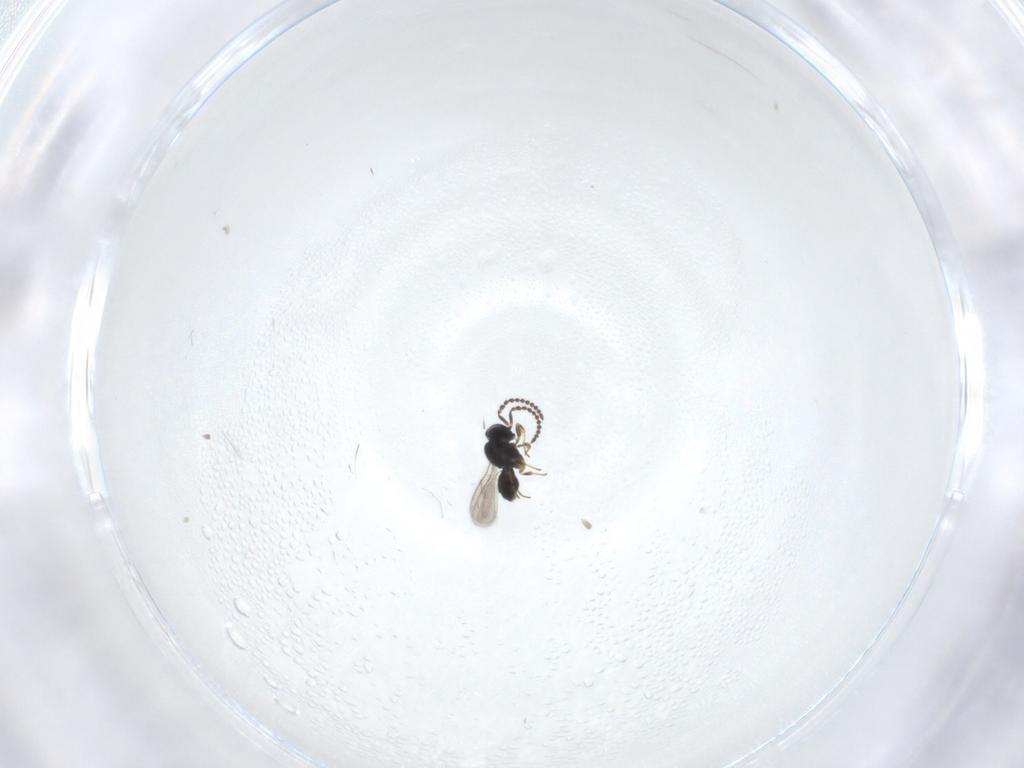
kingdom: Animalia
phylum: Arthropoda
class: Insecta
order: Hymenoptera
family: Scelionidae
